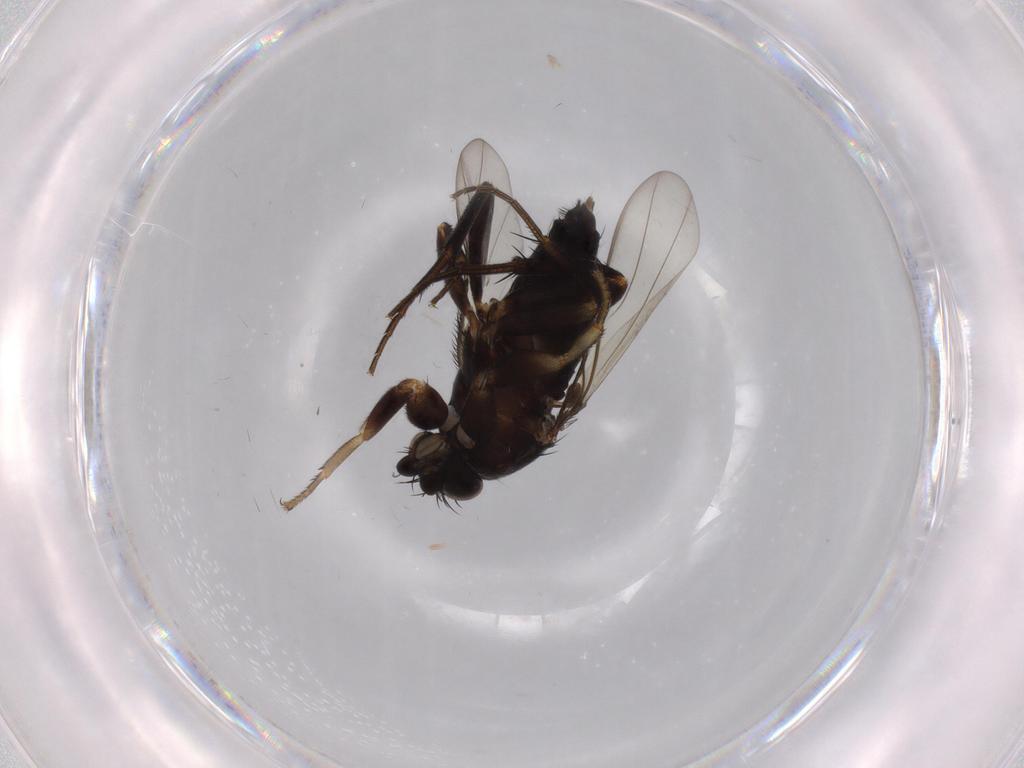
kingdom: Animalia
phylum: Arthropoda
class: Insecta
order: Diptera
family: Phoridae
